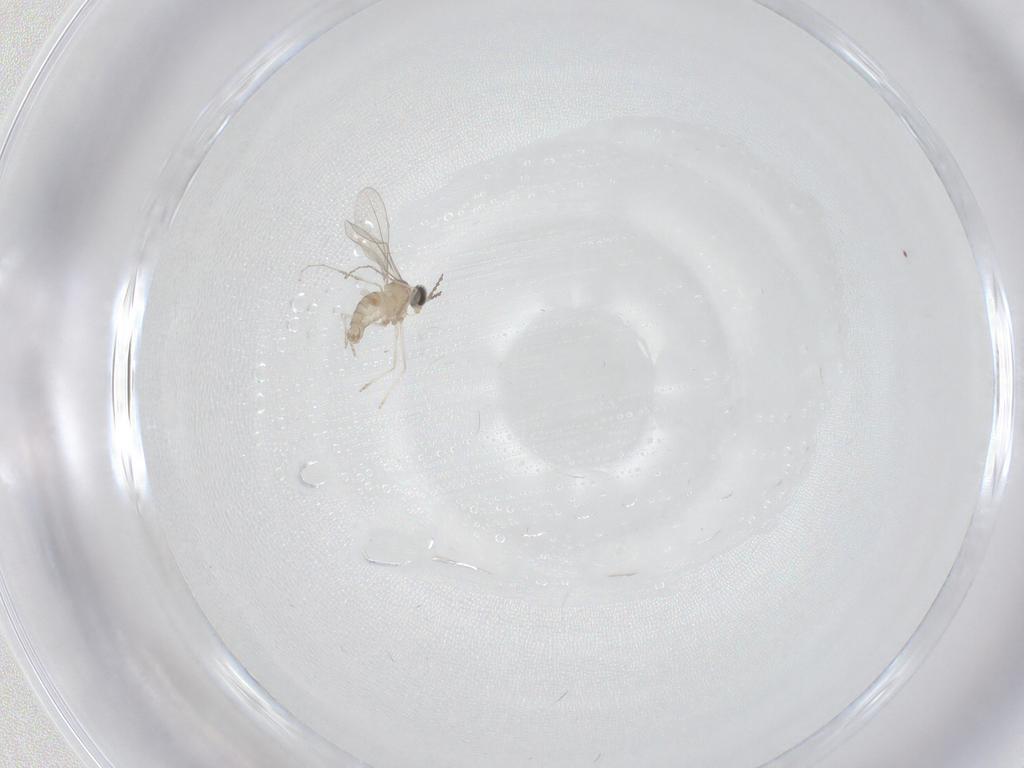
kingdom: Animalia
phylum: Arthropoda
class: Insecta
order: Diptera
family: Cecidomyiidae
